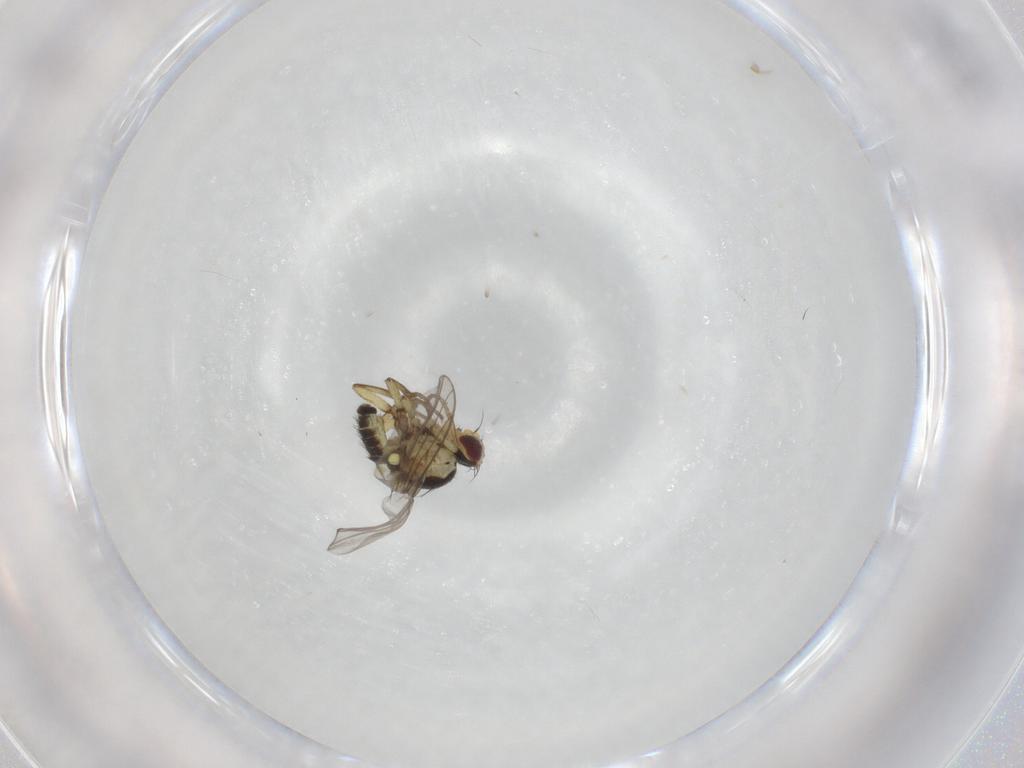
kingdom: Animalia
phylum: Arthropoda
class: Insecta
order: Diptera
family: Agromyzidae
